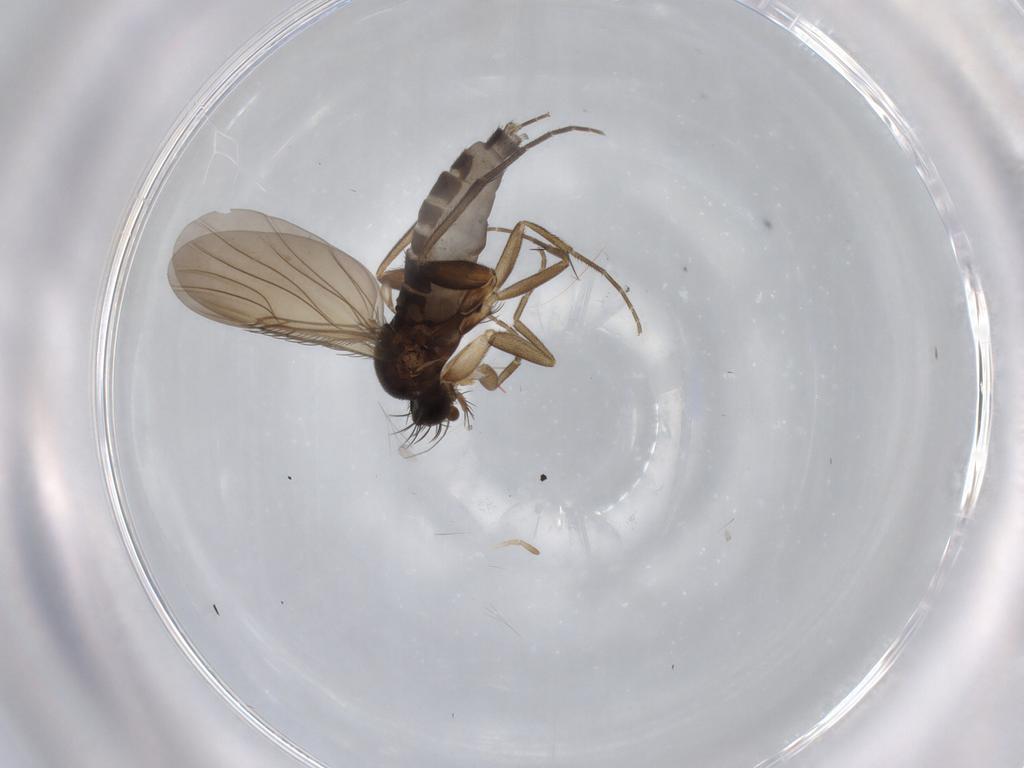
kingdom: Animalia
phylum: Arthropoda
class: Insecta
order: Diptera
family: Phoridae
